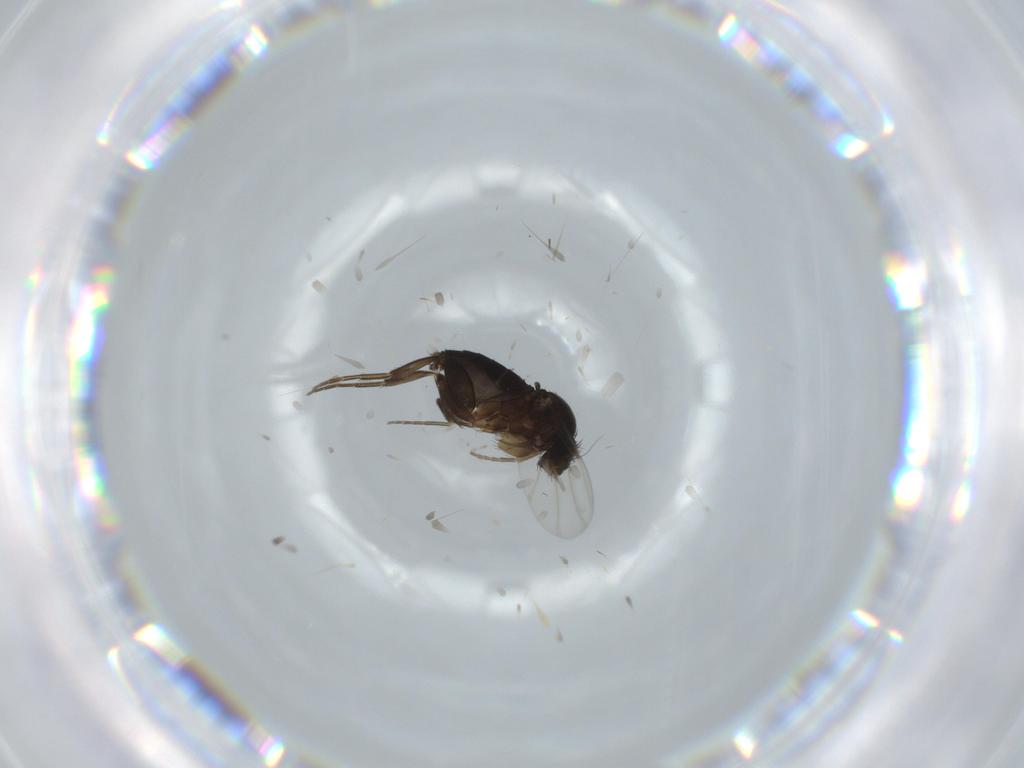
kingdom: Animalia
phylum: Arthropoda
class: Insecta
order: Diptera
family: Phoridae
